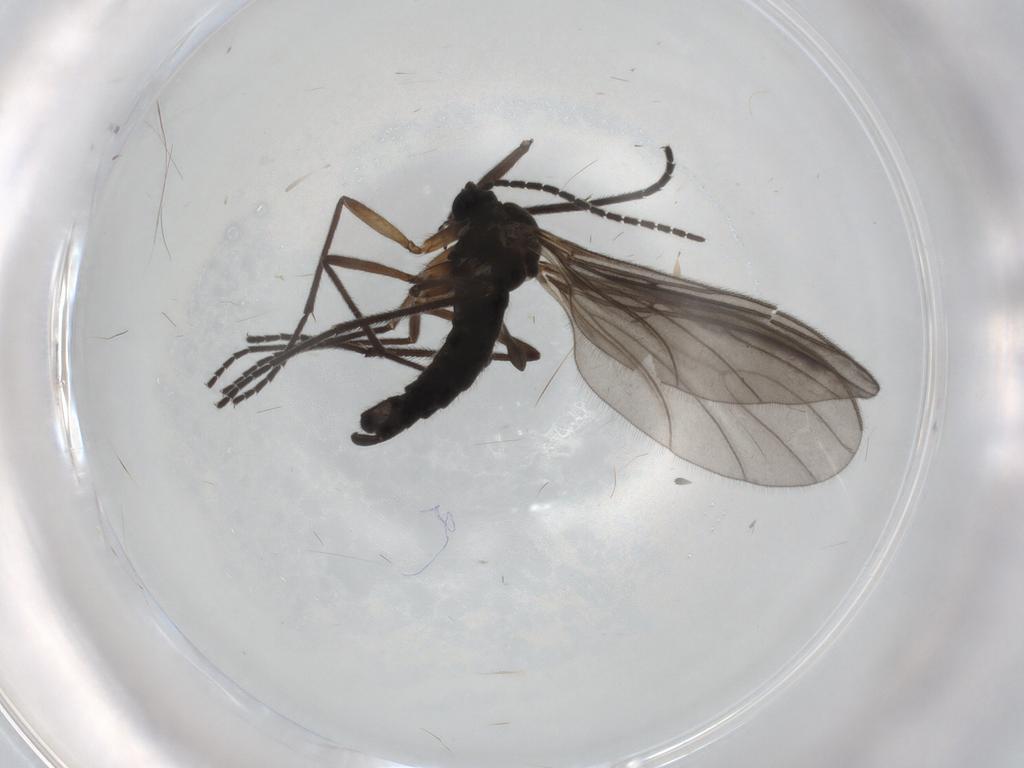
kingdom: Animalia
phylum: Arthropoda
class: Insecta
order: Diptera
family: Sciaridae
